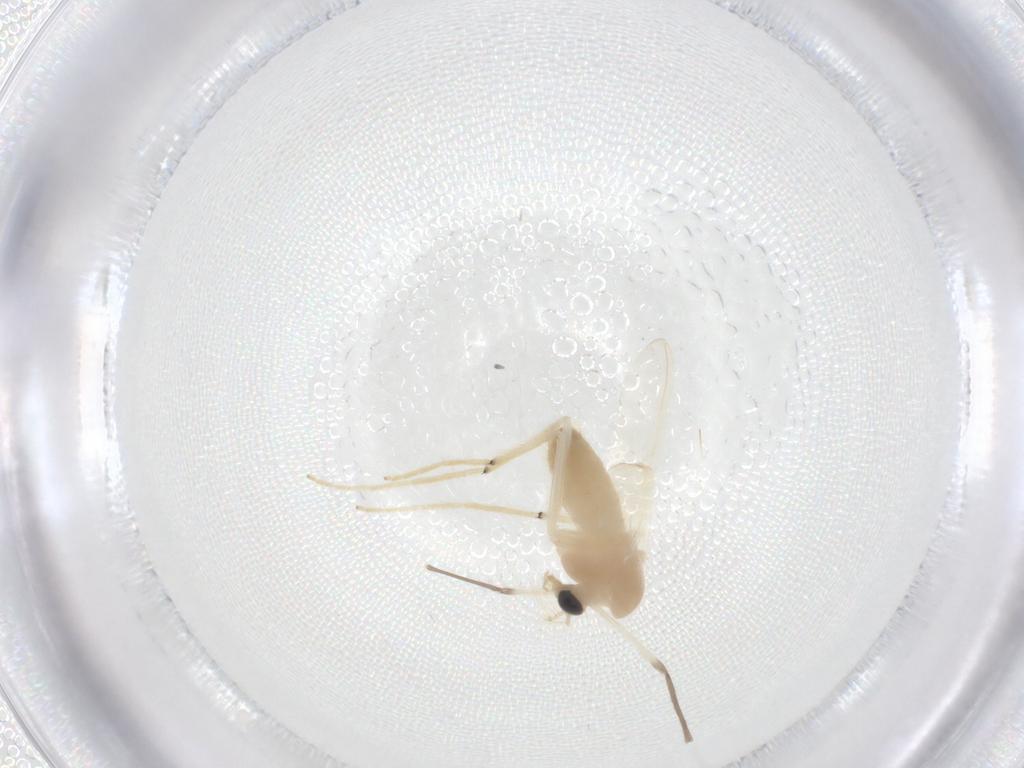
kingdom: Animalia
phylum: Arthropoda
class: Insecta
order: Diptera
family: Chironomidae
